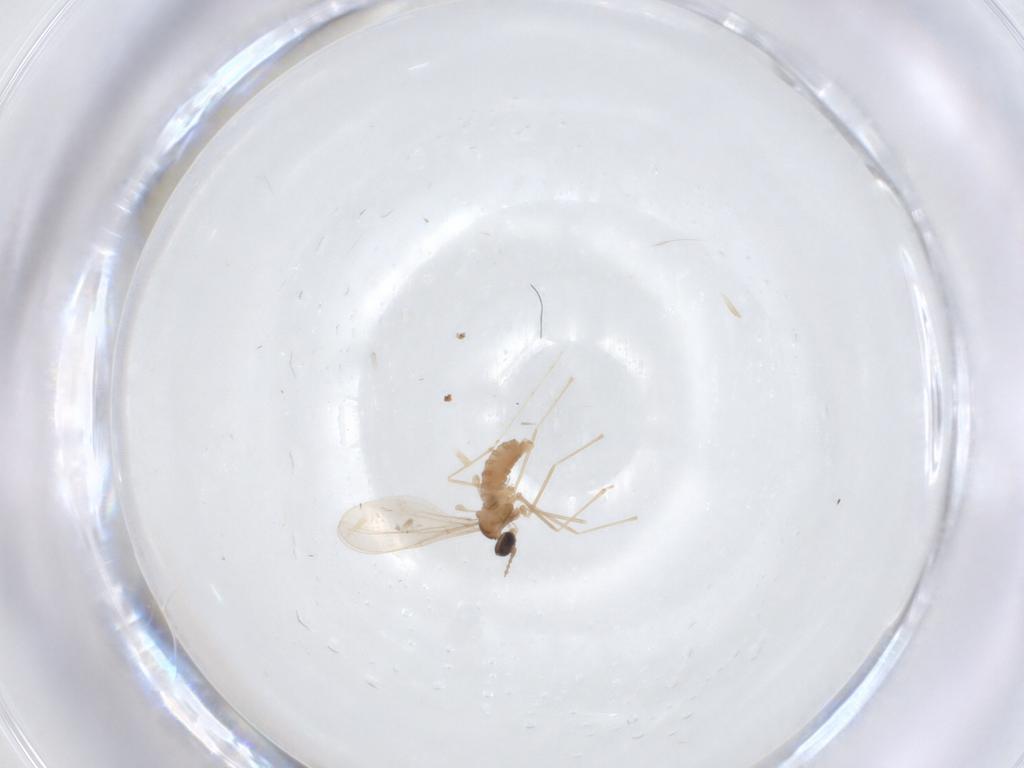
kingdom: Animalia
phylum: Arthropoda
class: Insecta
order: Diptera
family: Cecidomyiidae
